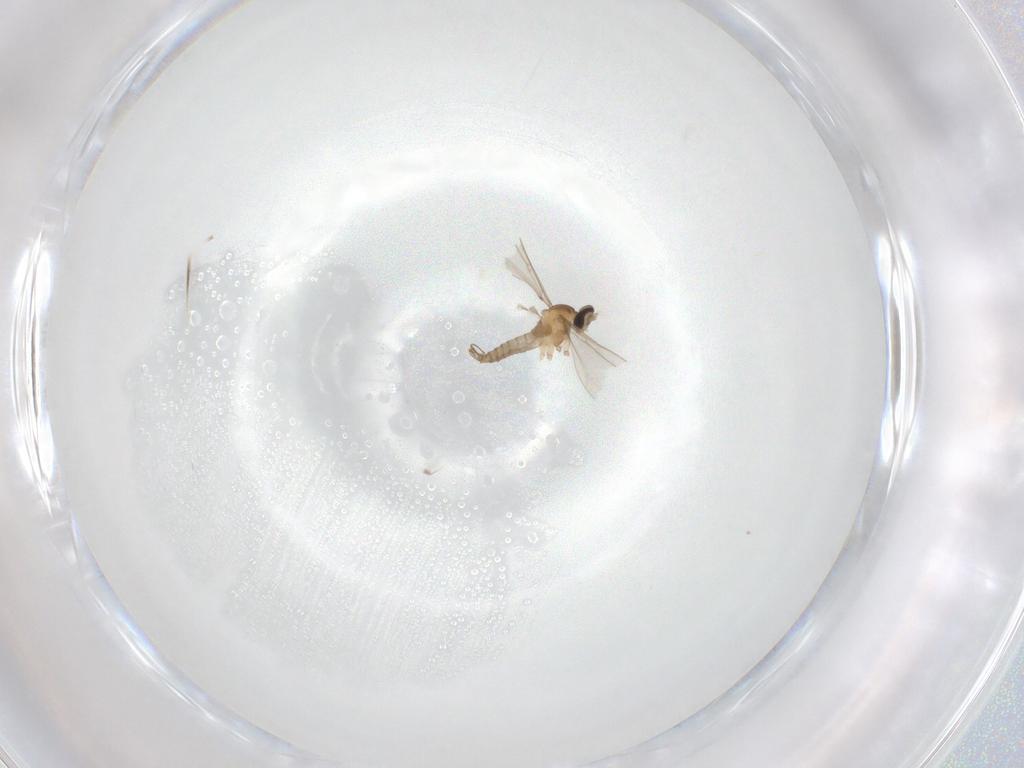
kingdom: Animalia
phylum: Arthropoda
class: Insecta
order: Diptera
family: Cecidomyiidae
